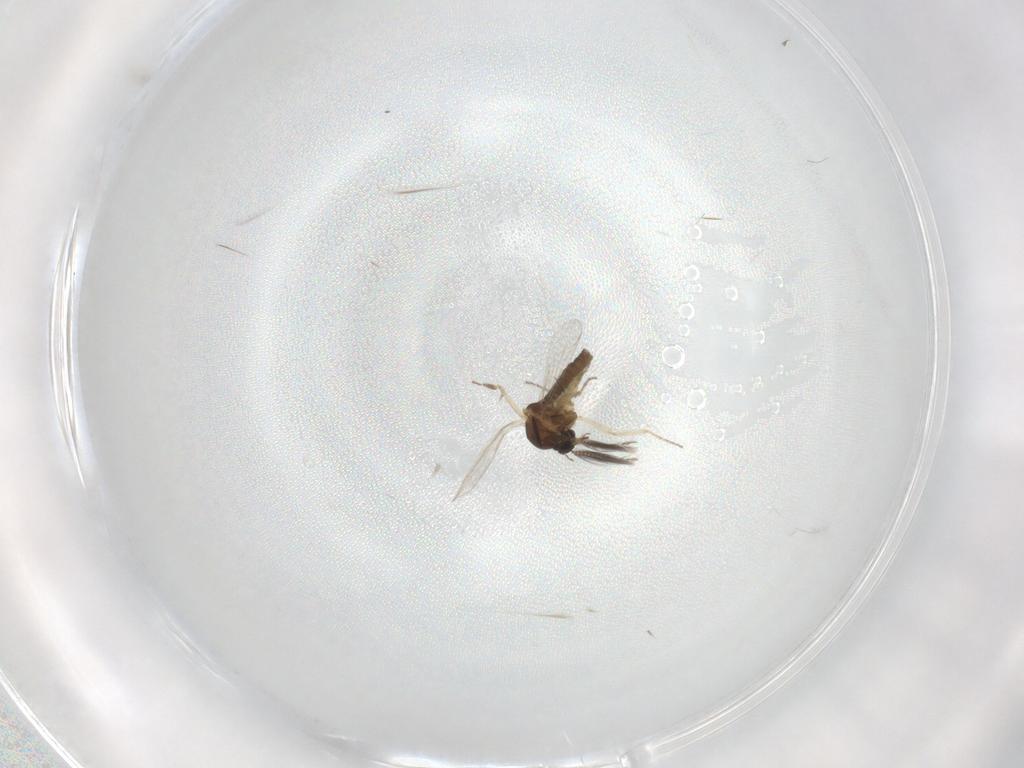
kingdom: Animalia
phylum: Arthropoda
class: Insecta
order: Diptera
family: Ceratopogonidae
